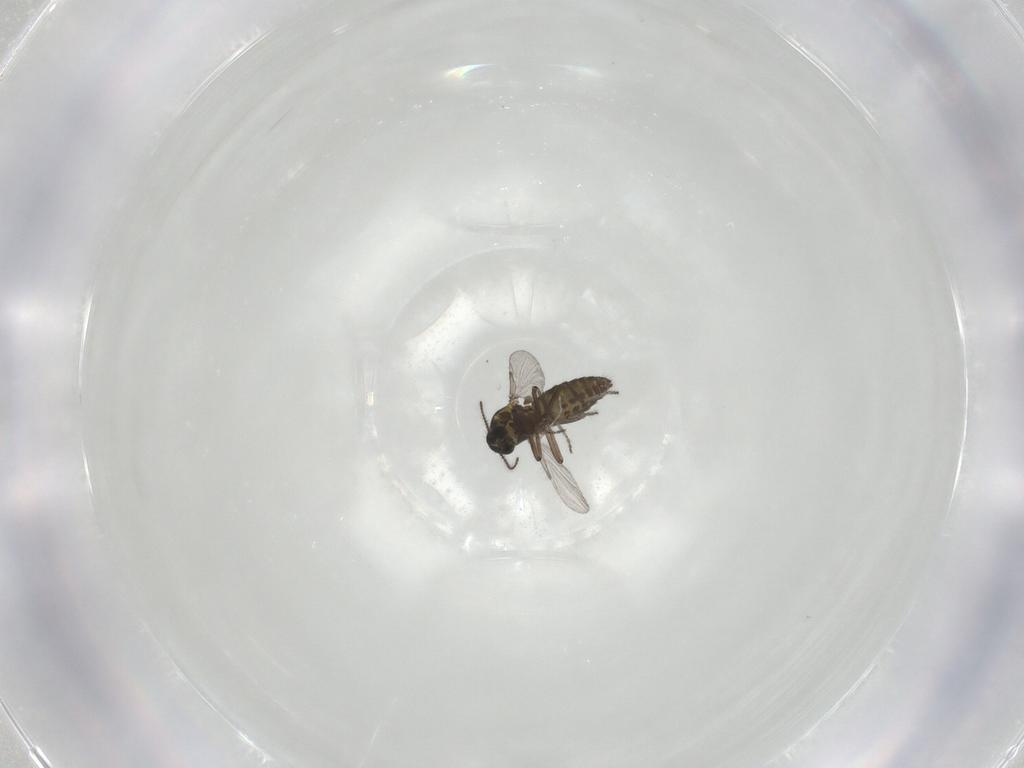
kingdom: Animalia
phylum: Arthropoda
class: Insecta
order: Diptera
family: Ceratopogonidae
